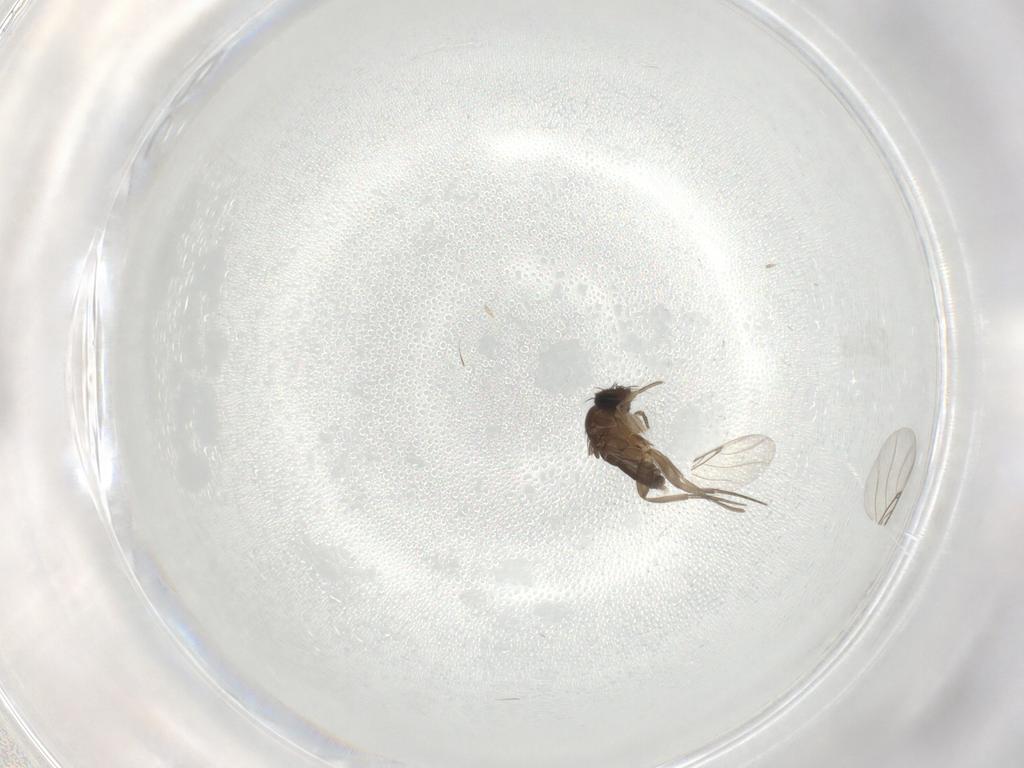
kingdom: Animalia
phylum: Arthropoda
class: Insecta
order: Diptera
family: Phoridae
